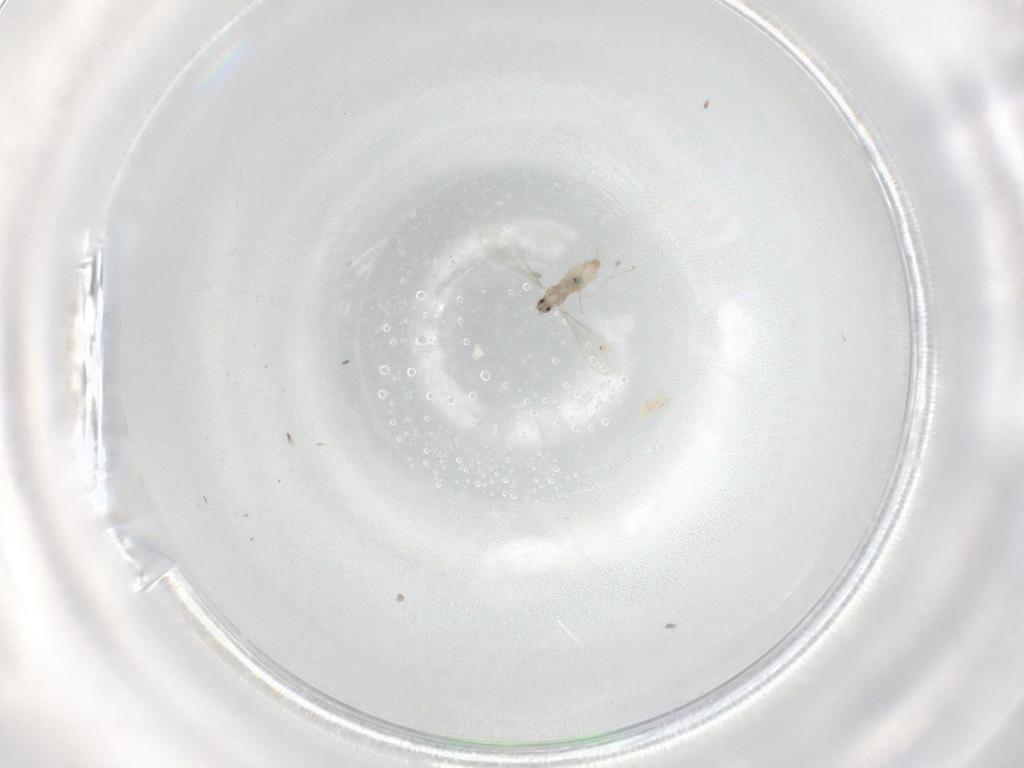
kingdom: Animalia
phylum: Arthropoda
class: Insecta
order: Diptera
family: Cecidomyiidae
